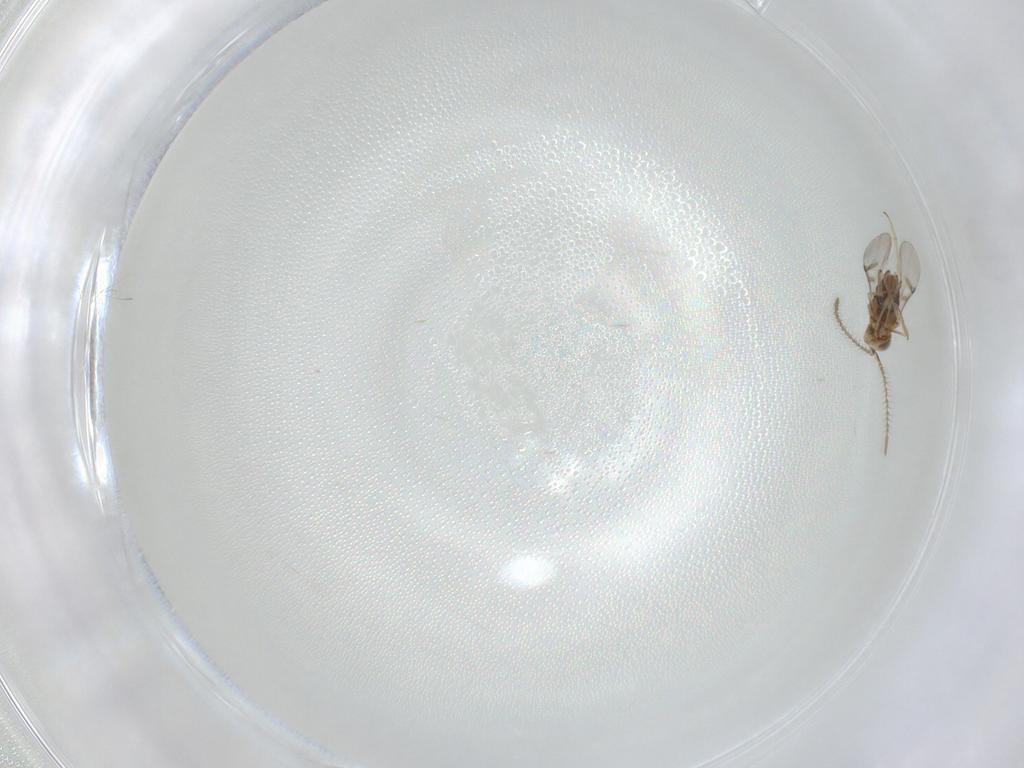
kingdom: Animalia
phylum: Arthropoda
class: Insecta
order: Hymenoptera
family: Encyrtidae
